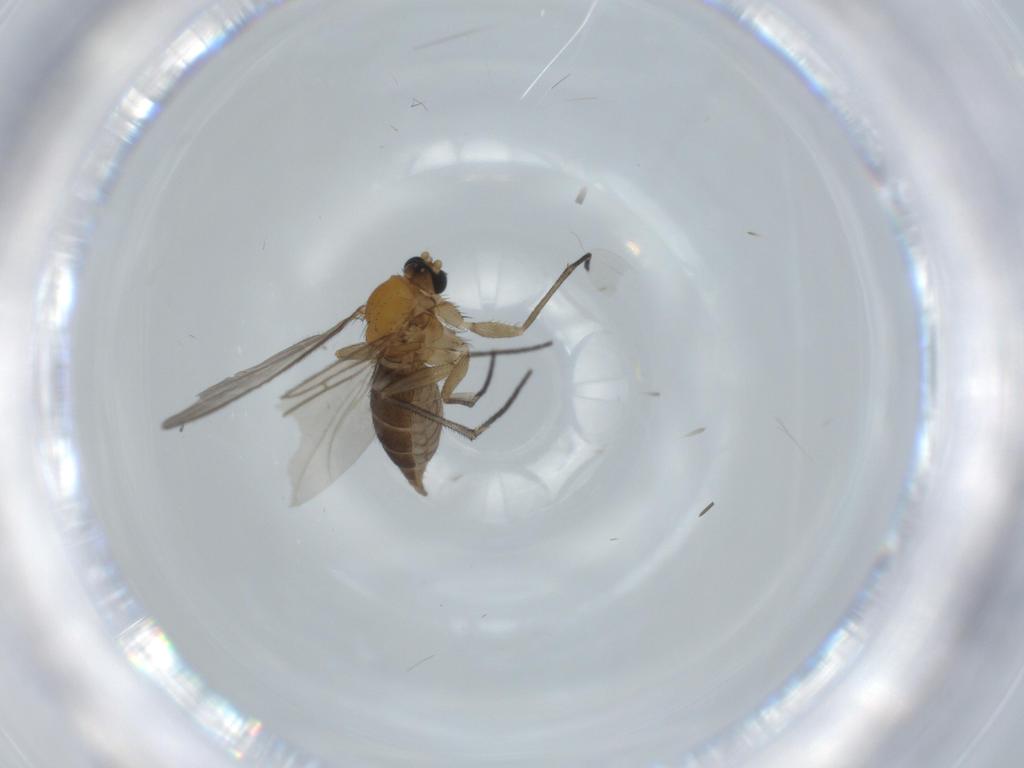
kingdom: Animalia
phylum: Arthropoda
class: Insecta
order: Diptera
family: Sciaridae
